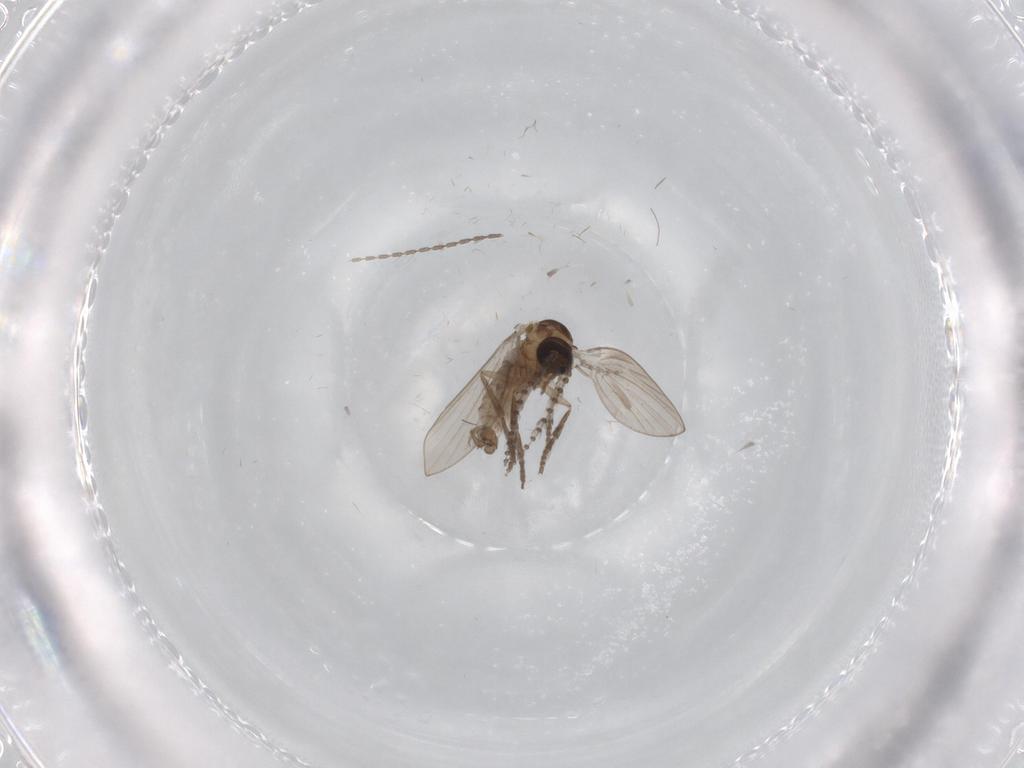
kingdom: Animalia
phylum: Arthropoda
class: Insecta
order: Diptera
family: Psychodidae
